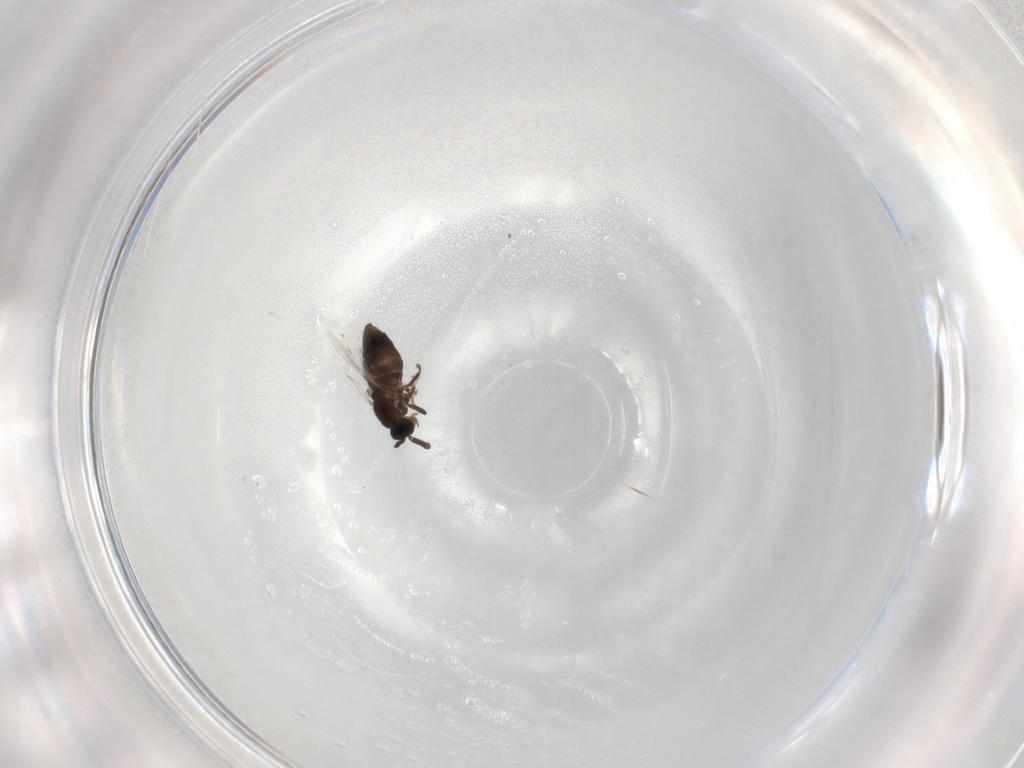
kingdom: Animalia
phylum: Arthropoda
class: Insecta
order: Diptera
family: Scatopsidae
